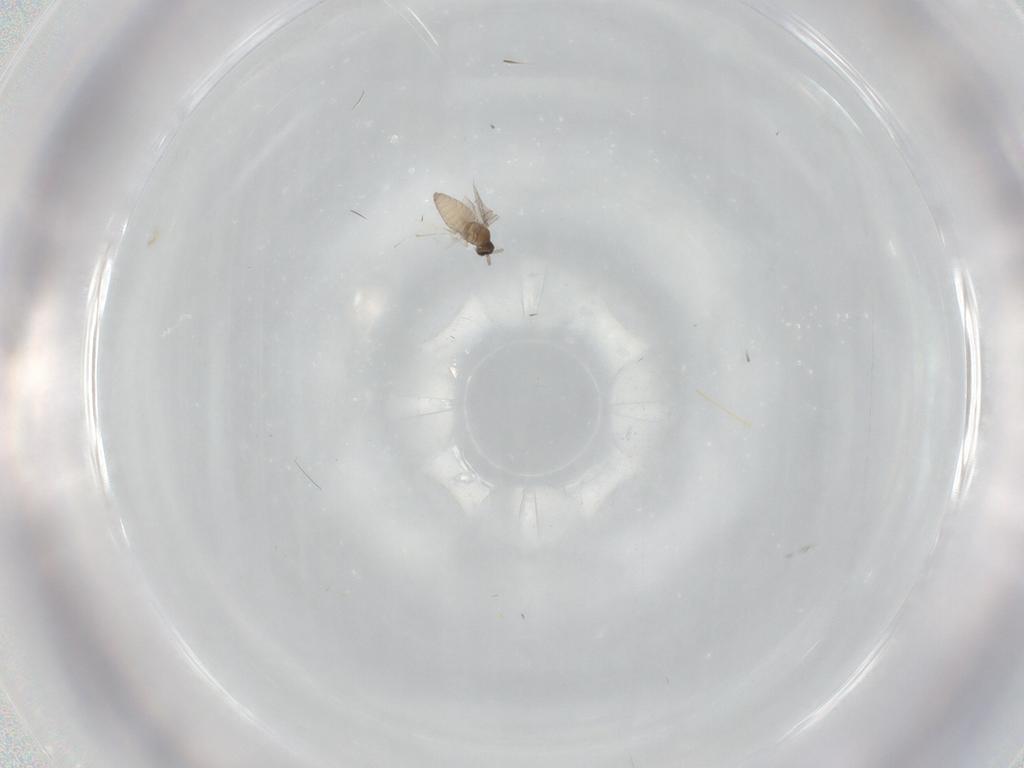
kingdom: Animalia
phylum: Arthropoda
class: Insecta
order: Diptera
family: Cecidomyiidae
